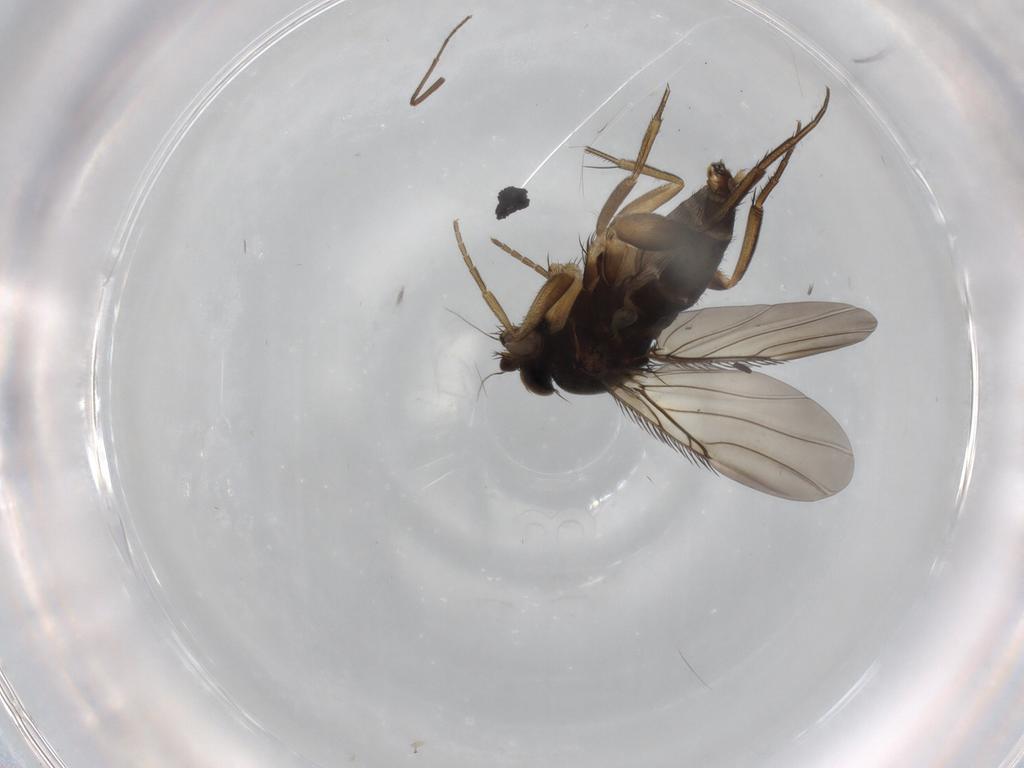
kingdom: Animalia
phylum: Arthropoda
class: Insecta
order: Diptera
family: Phoridae
